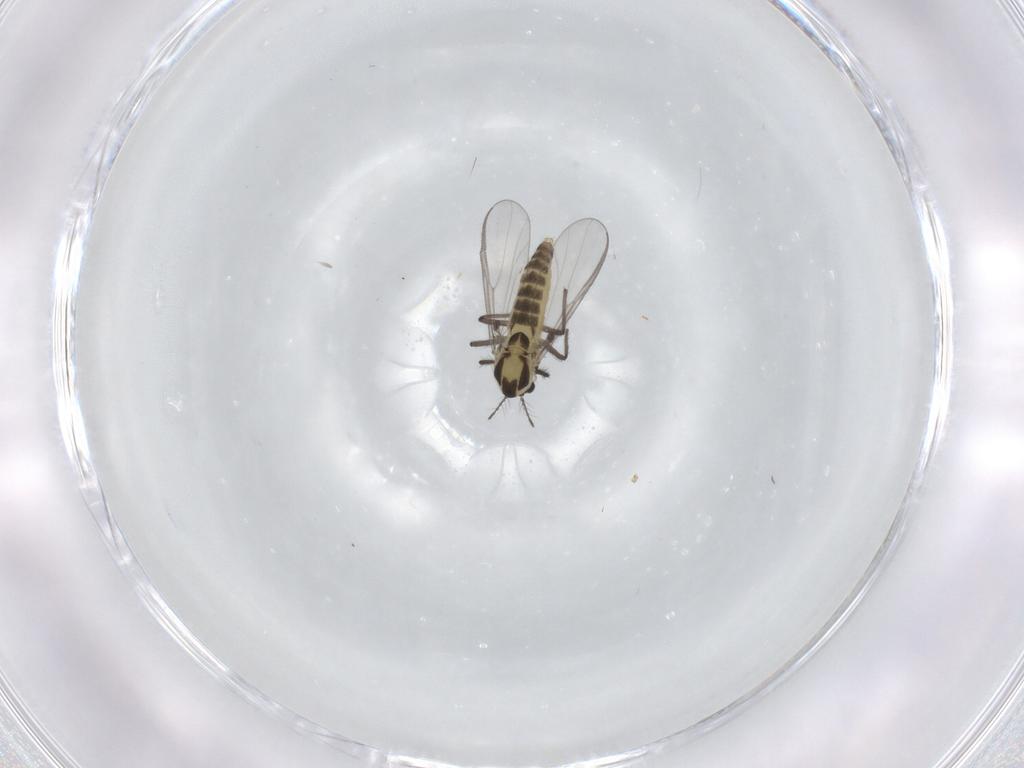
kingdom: Animalia
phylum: Arthropoda
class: Insecta
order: Diptera
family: Chironomidae
